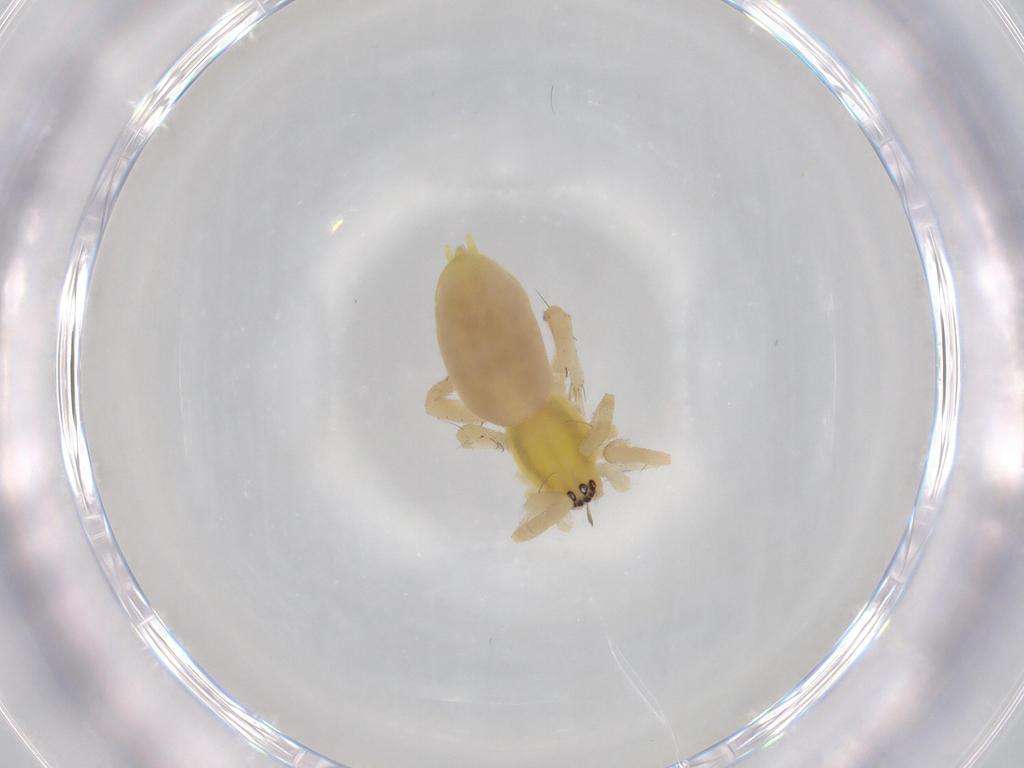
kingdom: Animalia
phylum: Arthropoda
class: Arachnida
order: Araneae
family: Anyphaenidae
